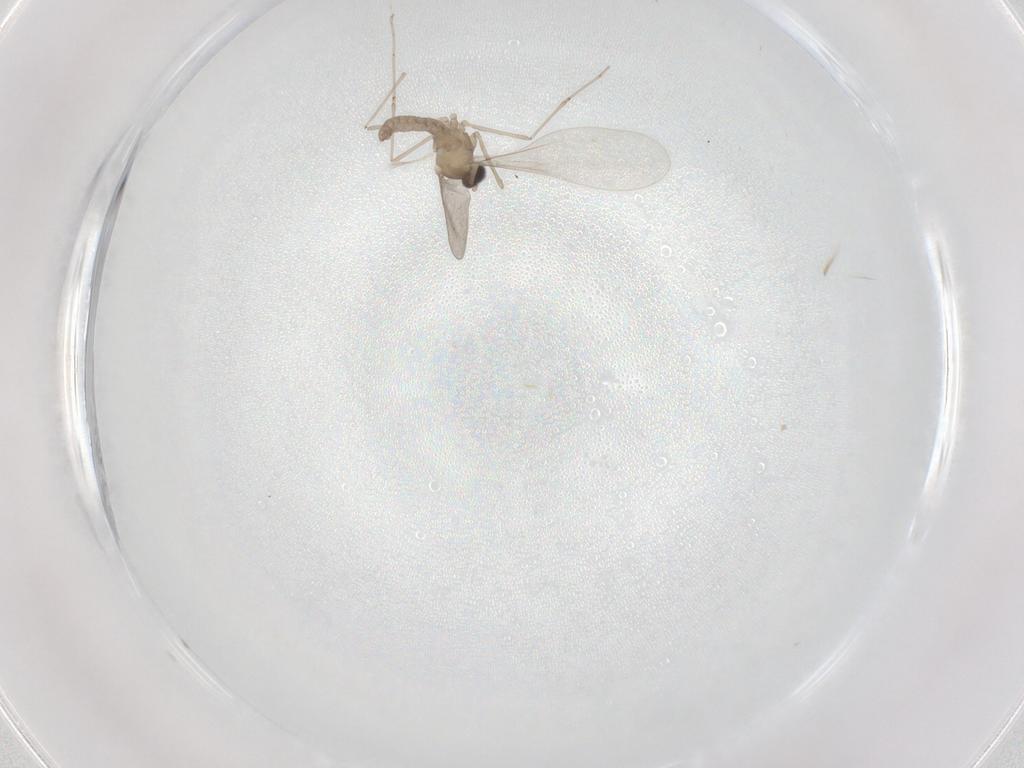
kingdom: Animalia
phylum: Arthropoda
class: Insecta
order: Diptera
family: Cecidomyiidae
